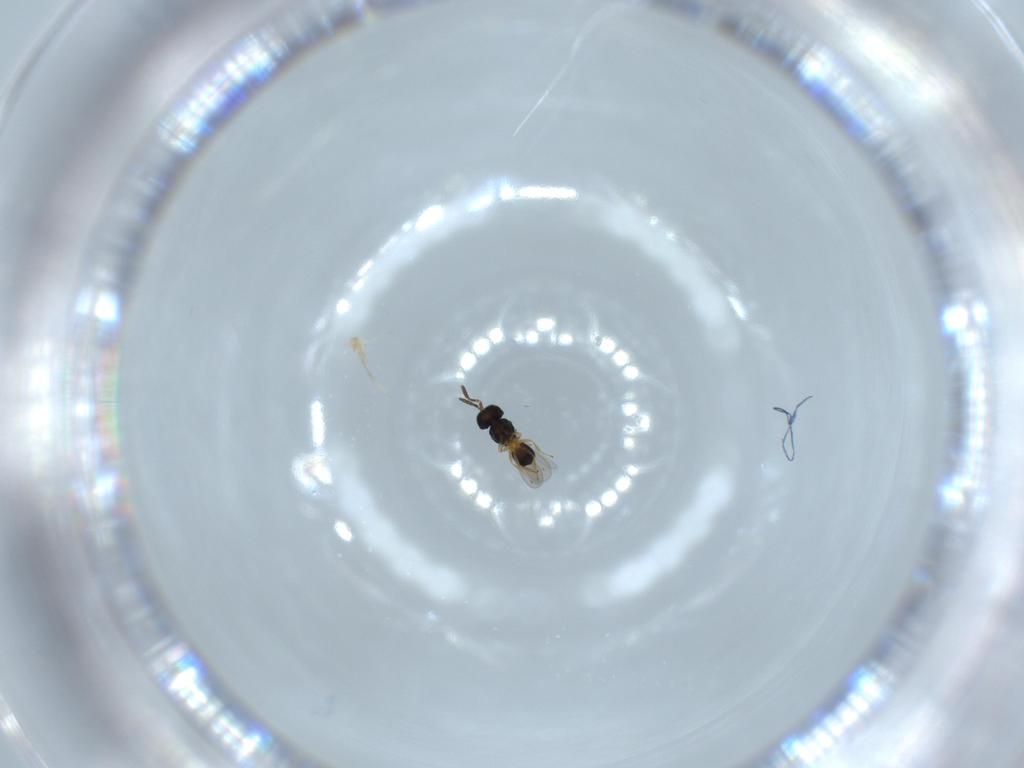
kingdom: Animalia
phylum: Arthropoda
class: Insecta
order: Hymenoptera
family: Scelionidae
